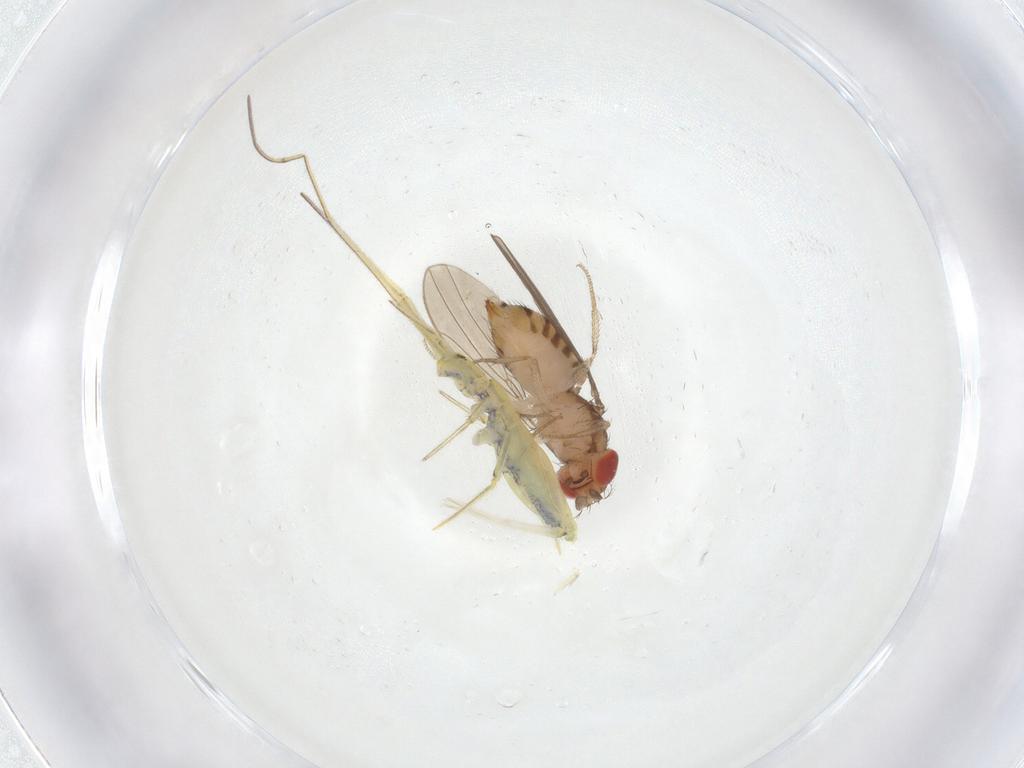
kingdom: Animalia
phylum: Arthropoda
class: Insecta
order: Diptera
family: Drosophilidae
